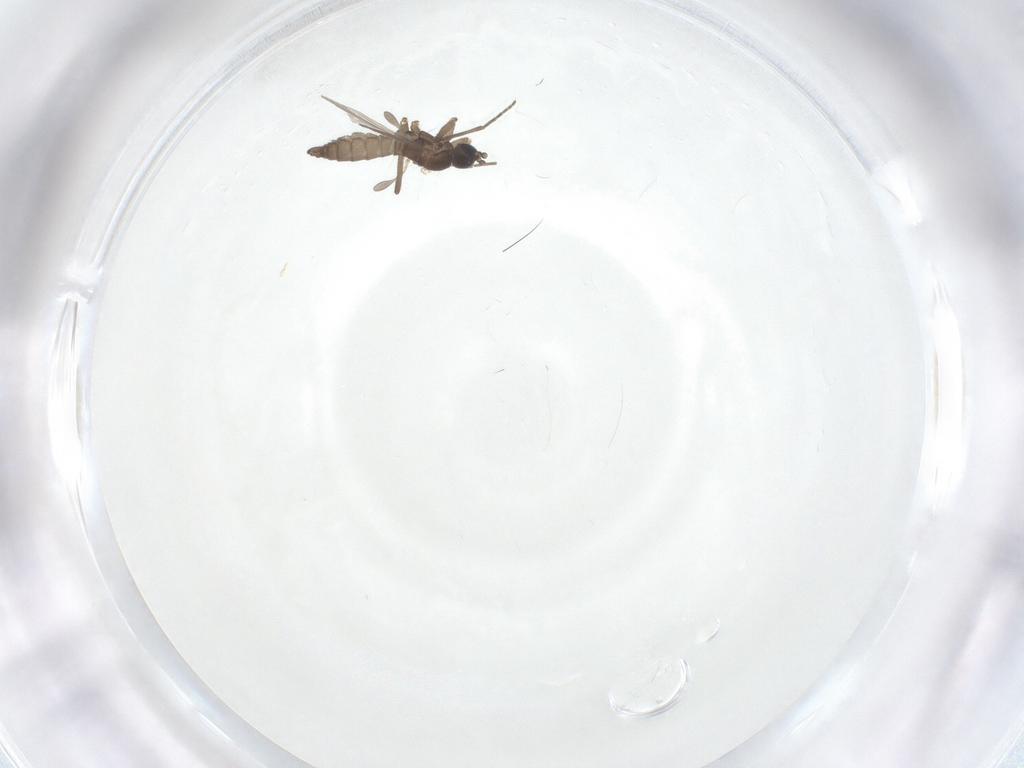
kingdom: Animalia
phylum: Arthropoda
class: Insecta
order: Diptera
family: Sciaridae
